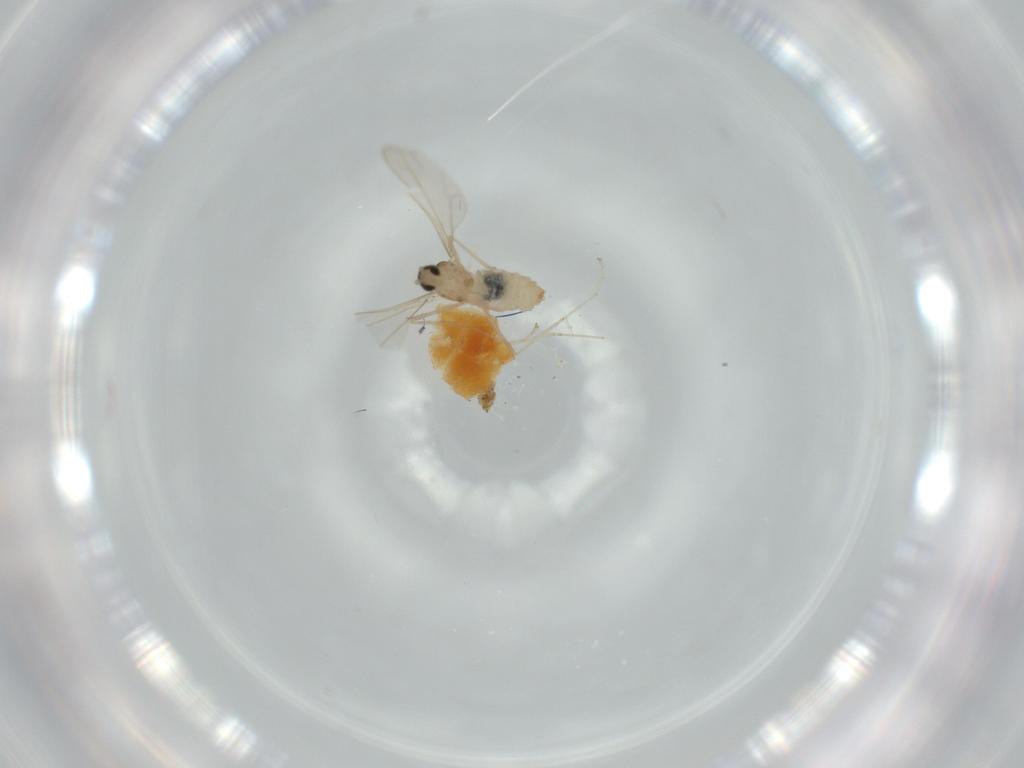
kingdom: Animalia
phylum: Arthropoda
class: Insecta
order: Diptera
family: Cecidomyiidae
